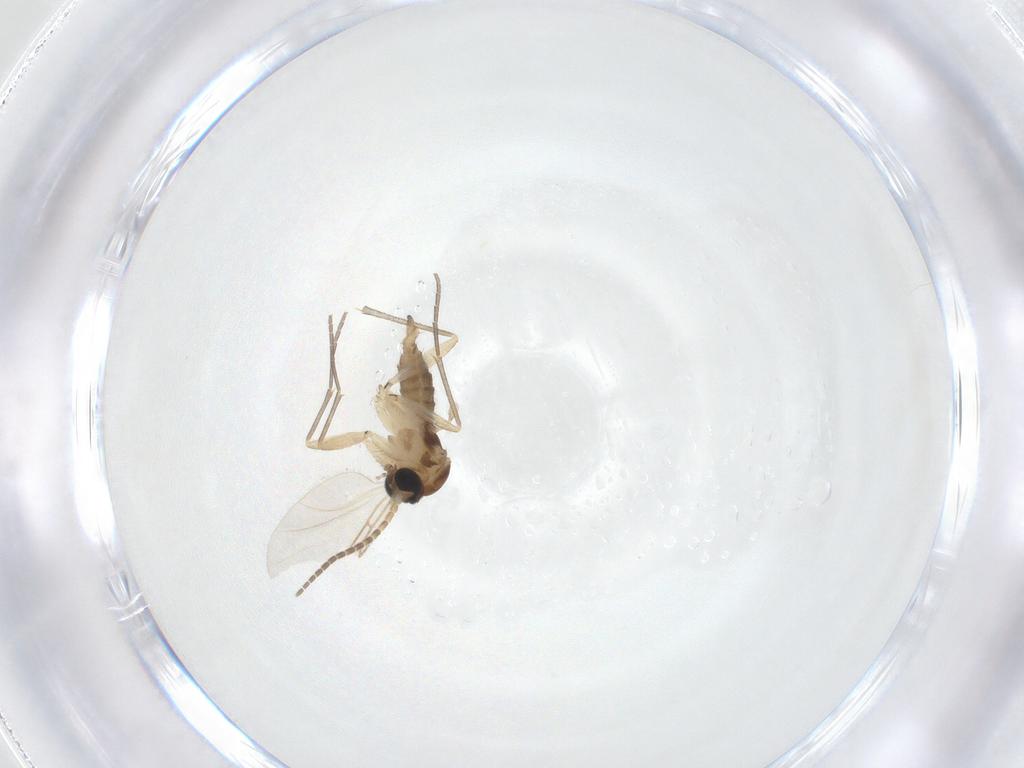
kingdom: Animalia
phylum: Arthropoda
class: Insecta
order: Diptera
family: Sciaridae
